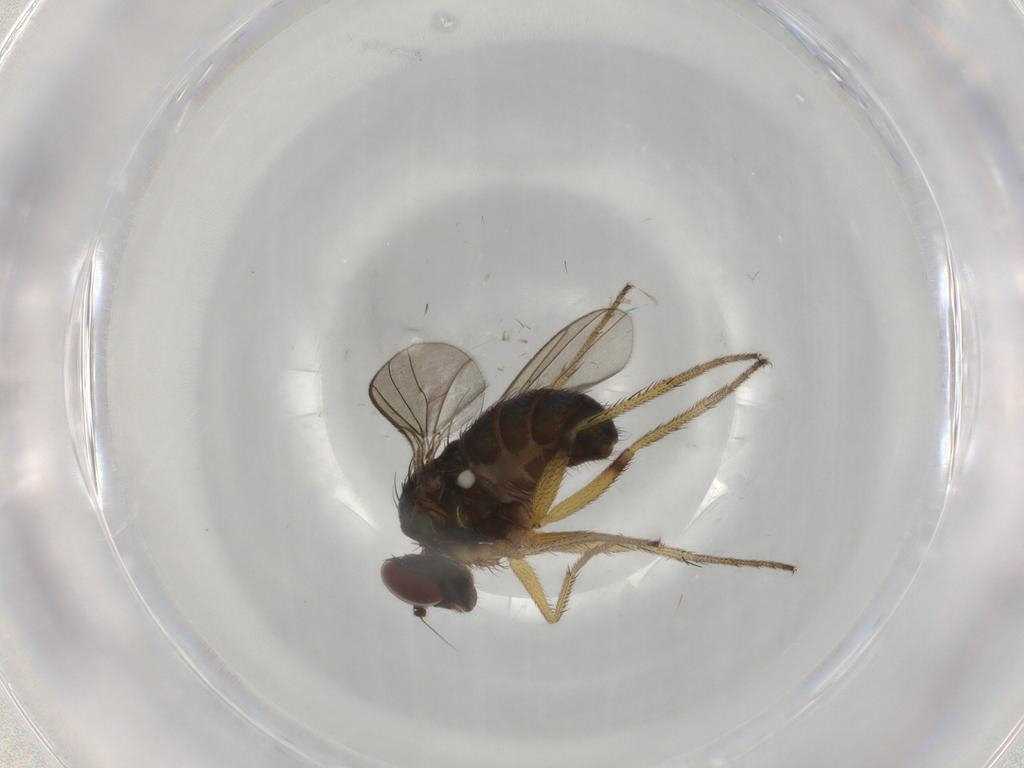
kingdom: Animalia
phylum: Arthropoda
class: Insecta
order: Diptera
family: Dolichopodidae
